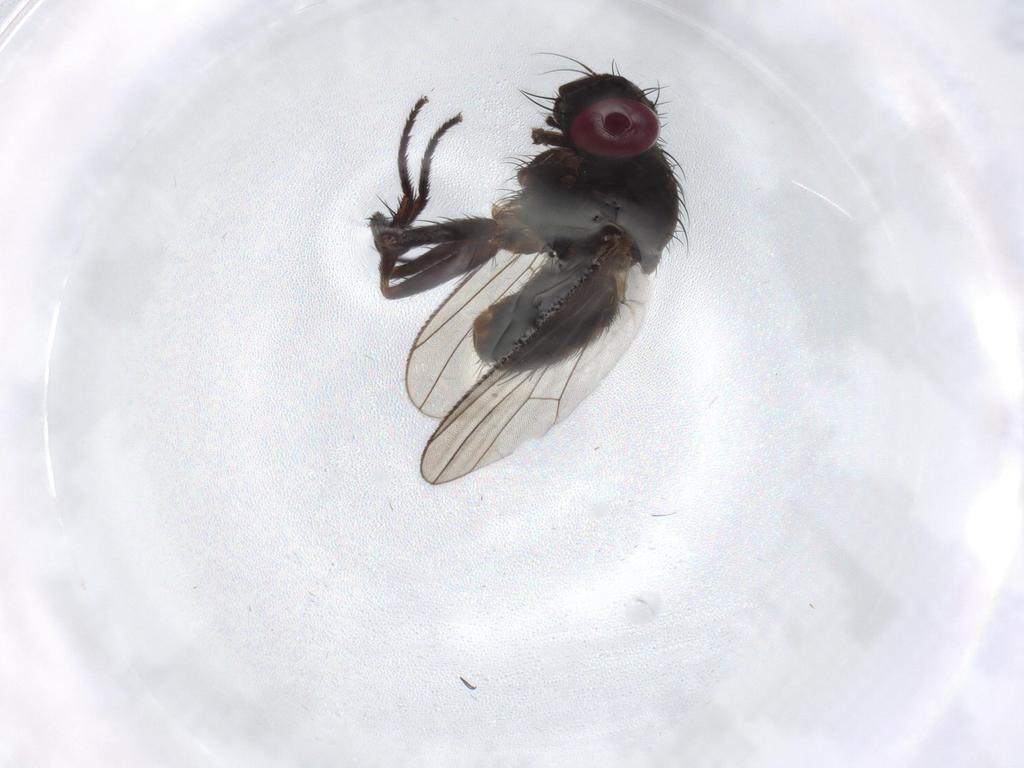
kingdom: Animalia
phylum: Arthropoda
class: Insecta
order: Diptera
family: Muscidae
